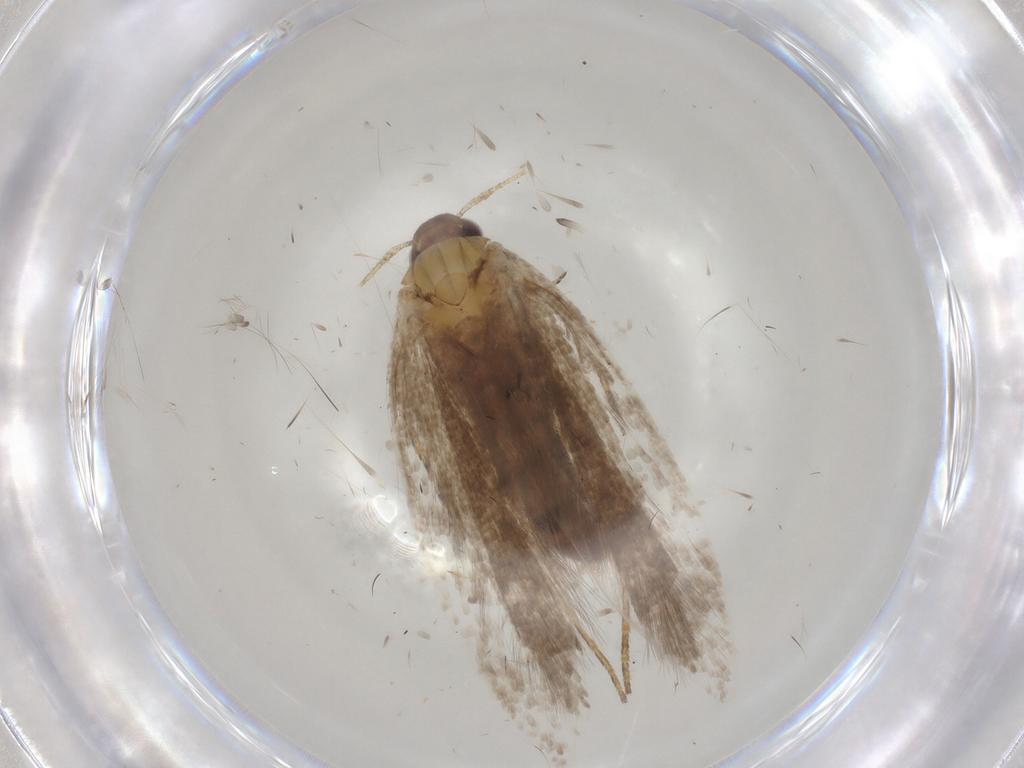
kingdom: Animalia
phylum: Arthropoda
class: Insecta
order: Lepidoptera
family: Gelechiidae
